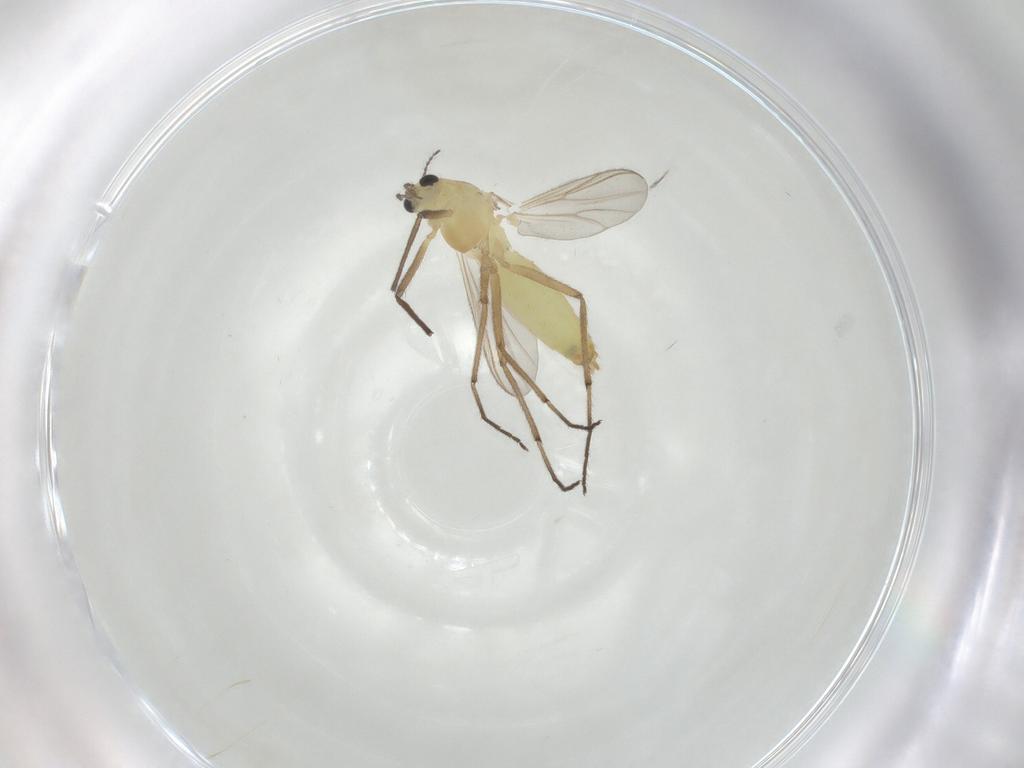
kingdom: Animalia
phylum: Arthropoda
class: Insecta
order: Diptera
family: Chironomidae
